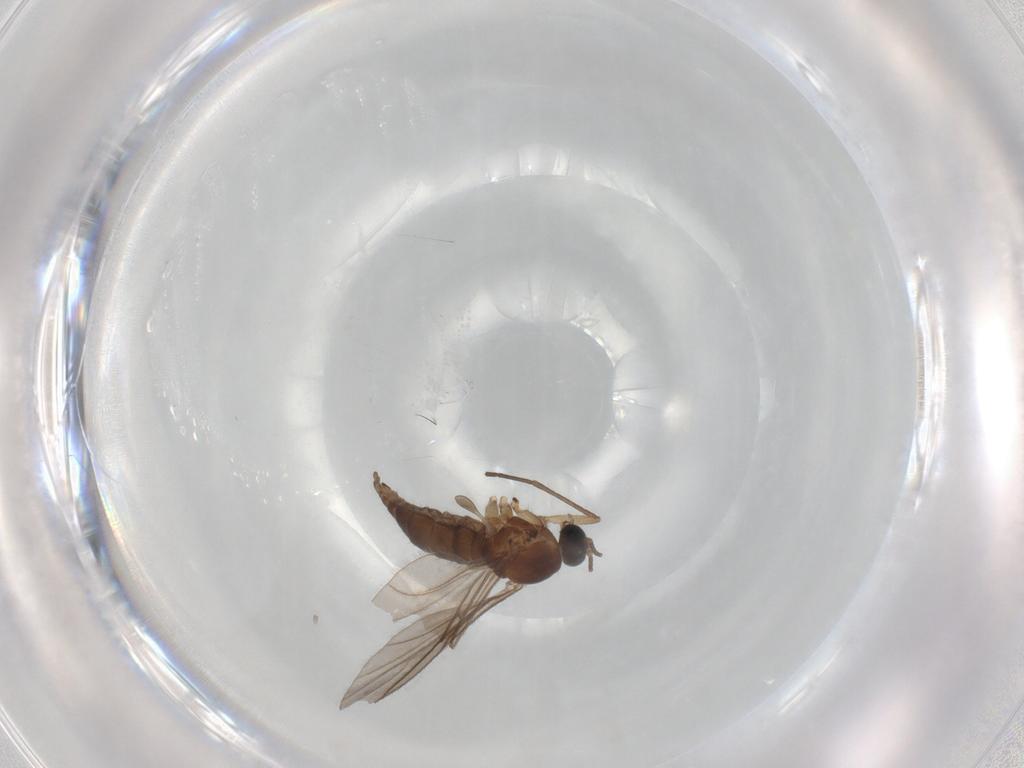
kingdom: Animalia
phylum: Arthropoda
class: Insecta
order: Diptera
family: Sciaridae
